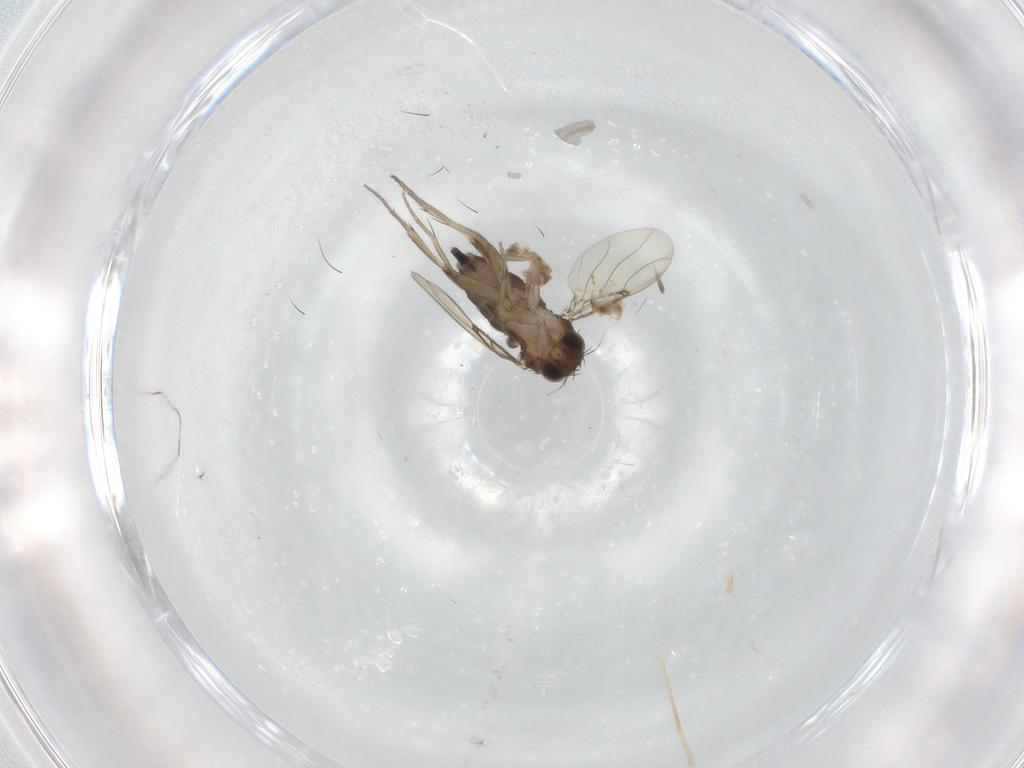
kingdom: Animalia
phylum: Arthropoda
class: Insecta
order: Diptera
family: Phoridae
